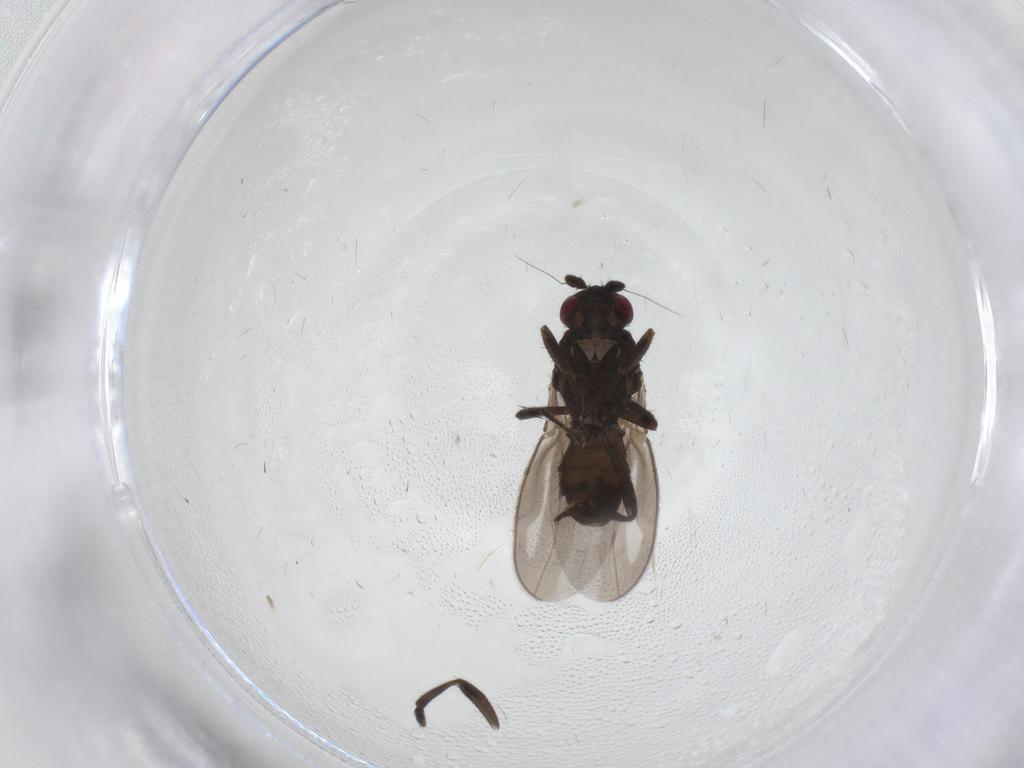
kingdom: Animalia
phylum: Arthropoda
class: Insecta
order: Diptera
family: Sphaeroceridae
